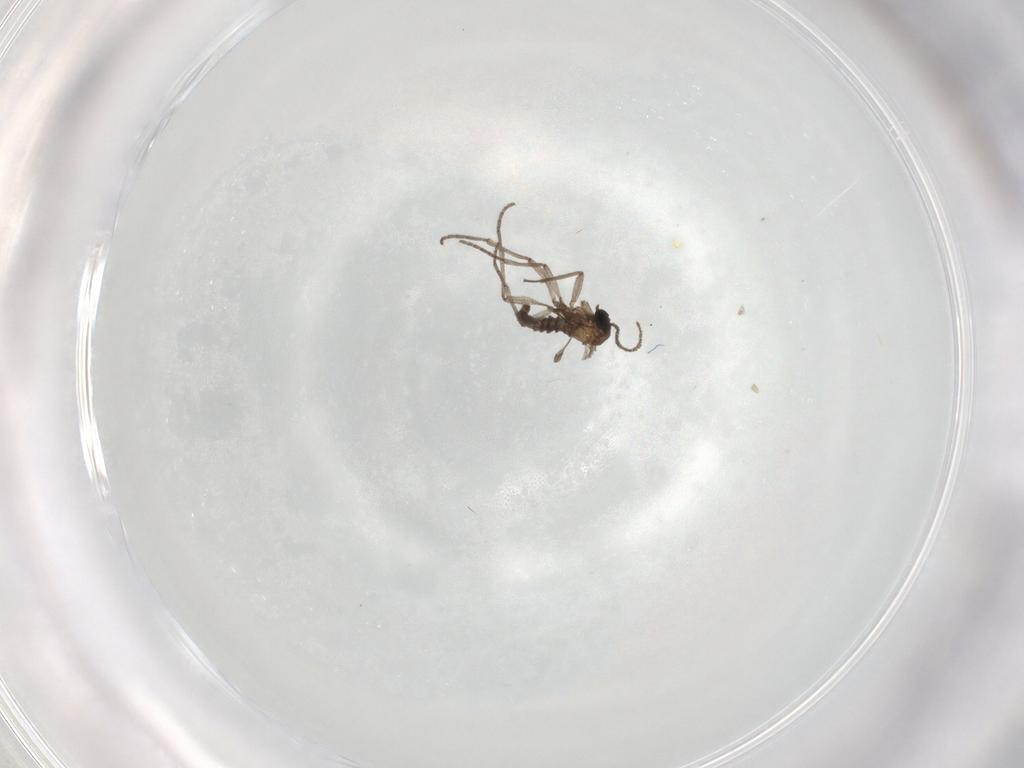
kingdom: Animalia
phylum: Arthropoda
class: Insecta
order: Diptera
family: Sciaridae
